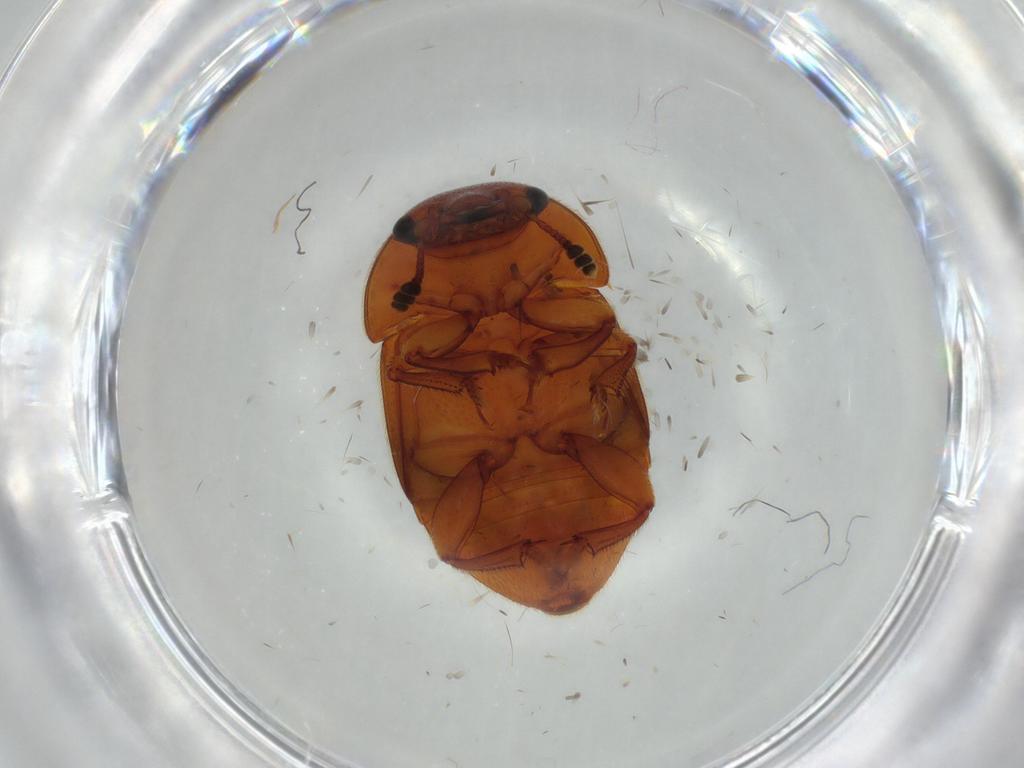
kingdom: Animalia
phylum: Arthropoda
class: Insecta
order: Coleoptera
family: Nitidulidae
